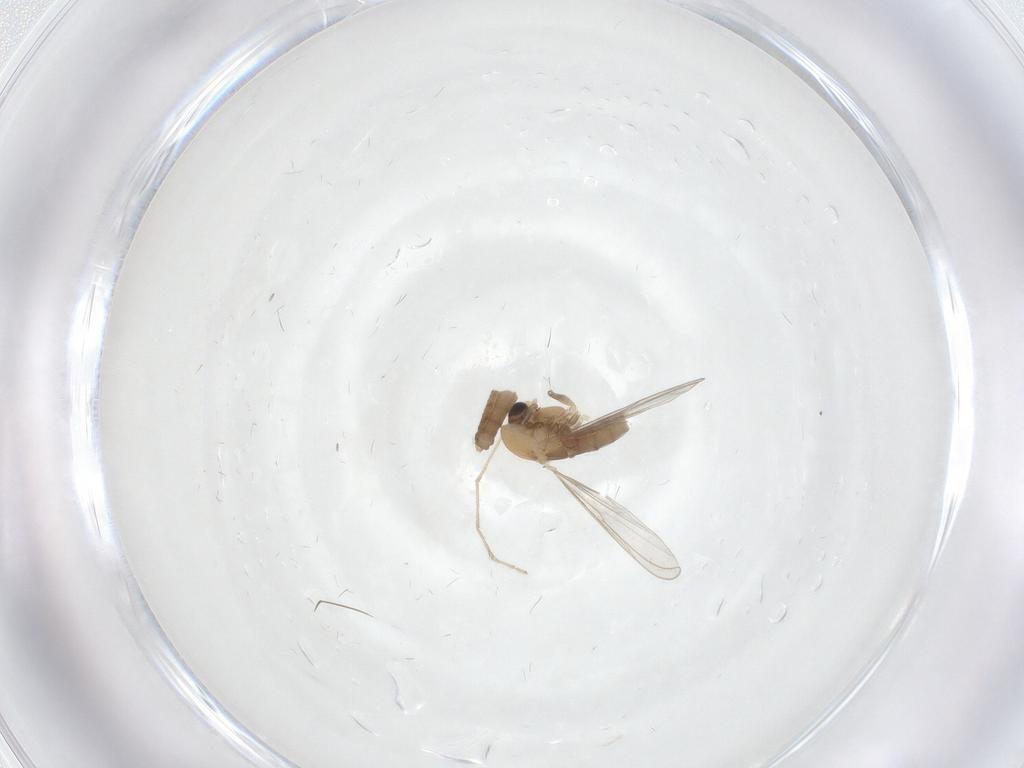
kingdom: Animalia
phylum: Arthropoda
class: Insecta
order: Diptera
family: Chironomidae
